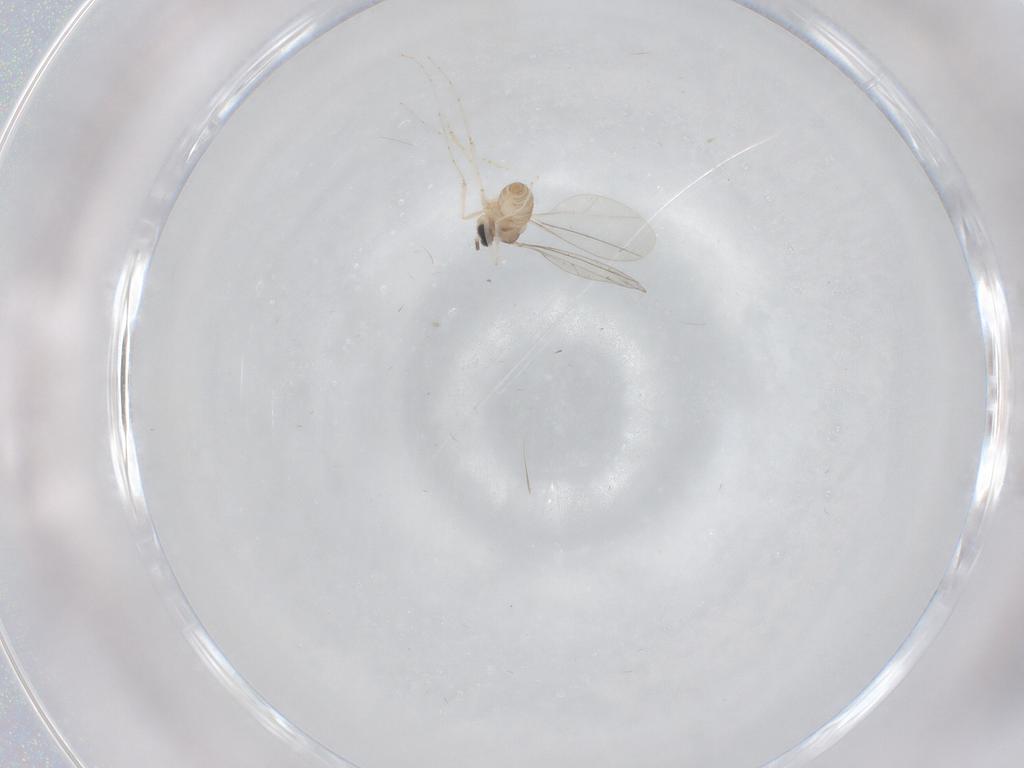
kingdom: Animalia
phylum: Arthropoda
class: Insecta
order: Diptera
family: Cecidomyiidae
